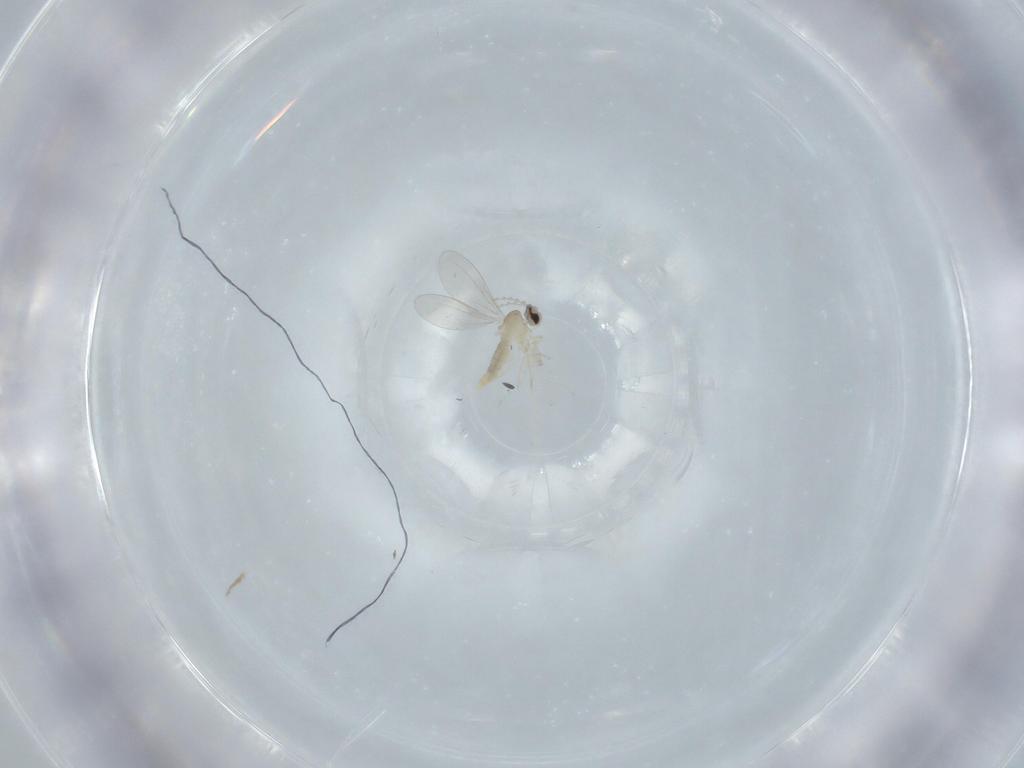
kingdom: Animalia
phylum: Arthropoda
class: Insecta
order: Diptera
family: Cecidomyiidae
